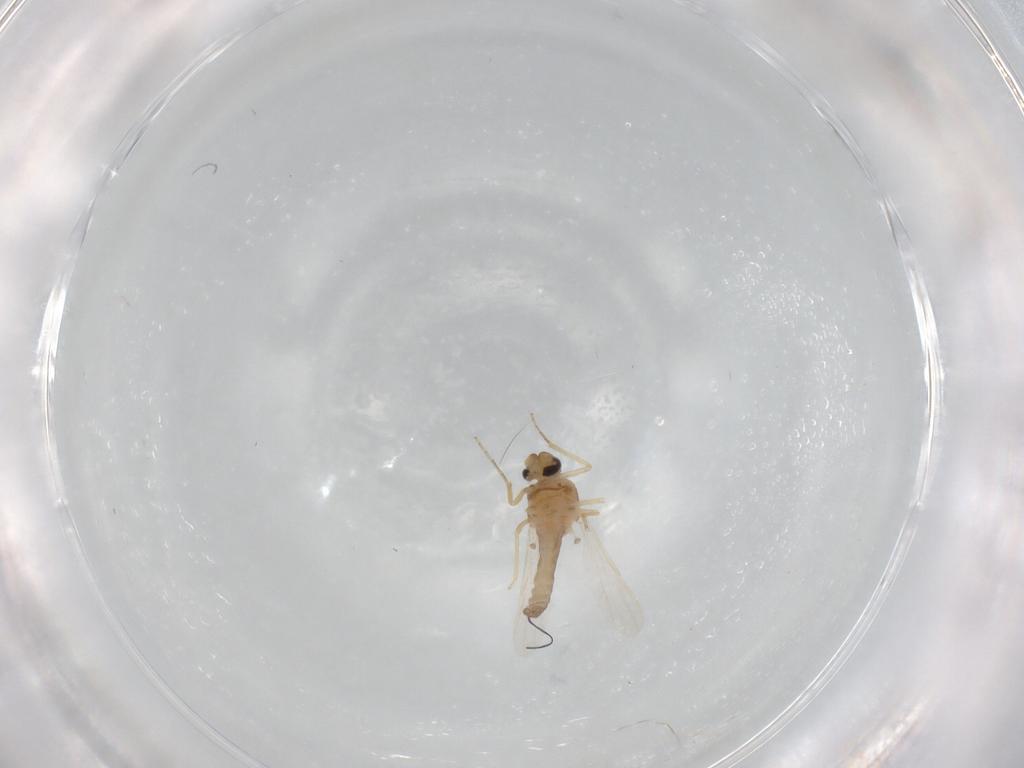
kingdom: Animalia
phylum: Arthropoda
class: Insecta
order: Diptera
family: Ceratopogonidae
